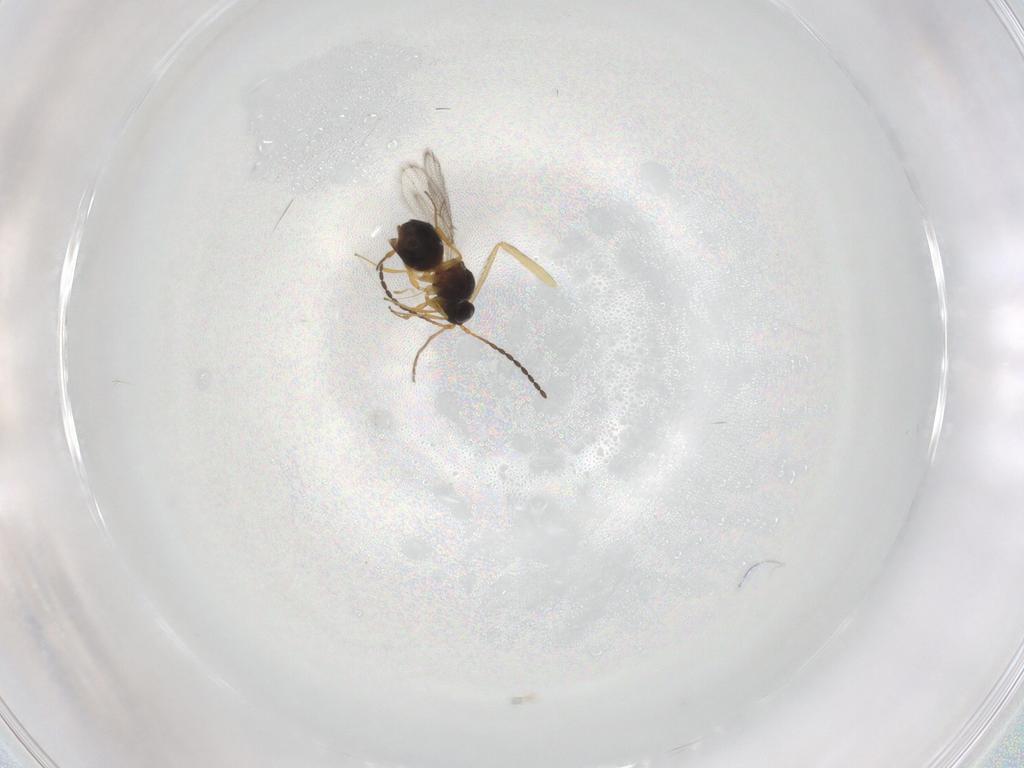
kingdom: Animalia
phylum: Arthropoda
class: Insecta
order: Hymenoptera
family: Figitidae
